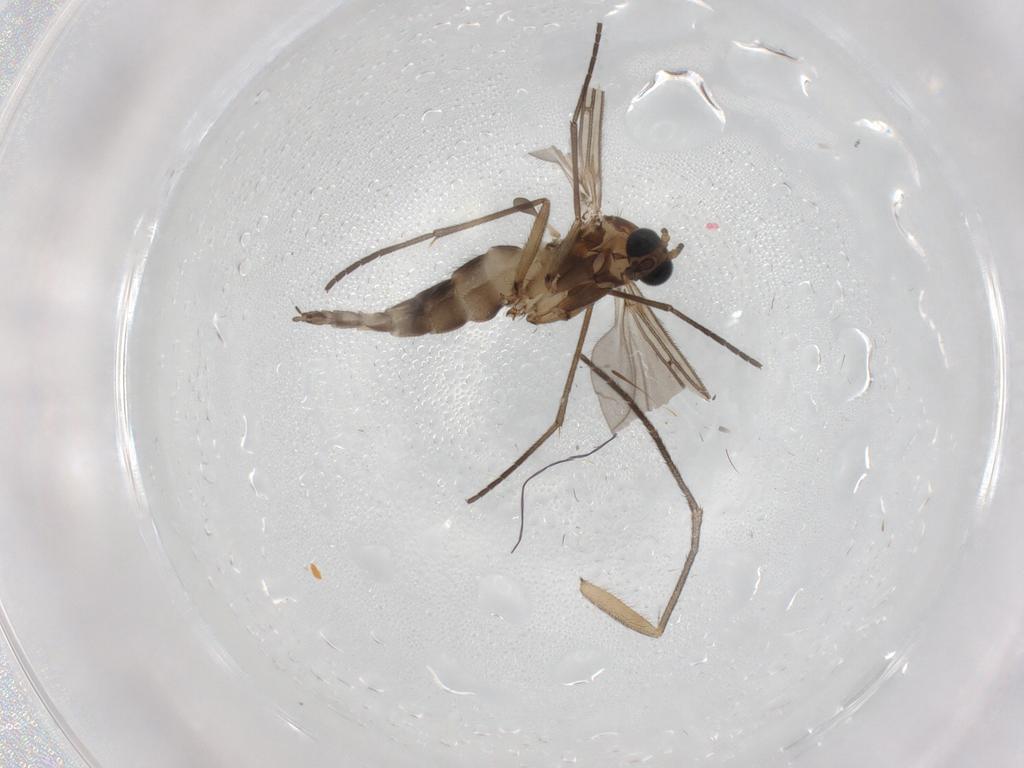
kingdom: Animalia
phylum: Arthropoda
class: Insecta
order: Diptera
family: Sciaridae
